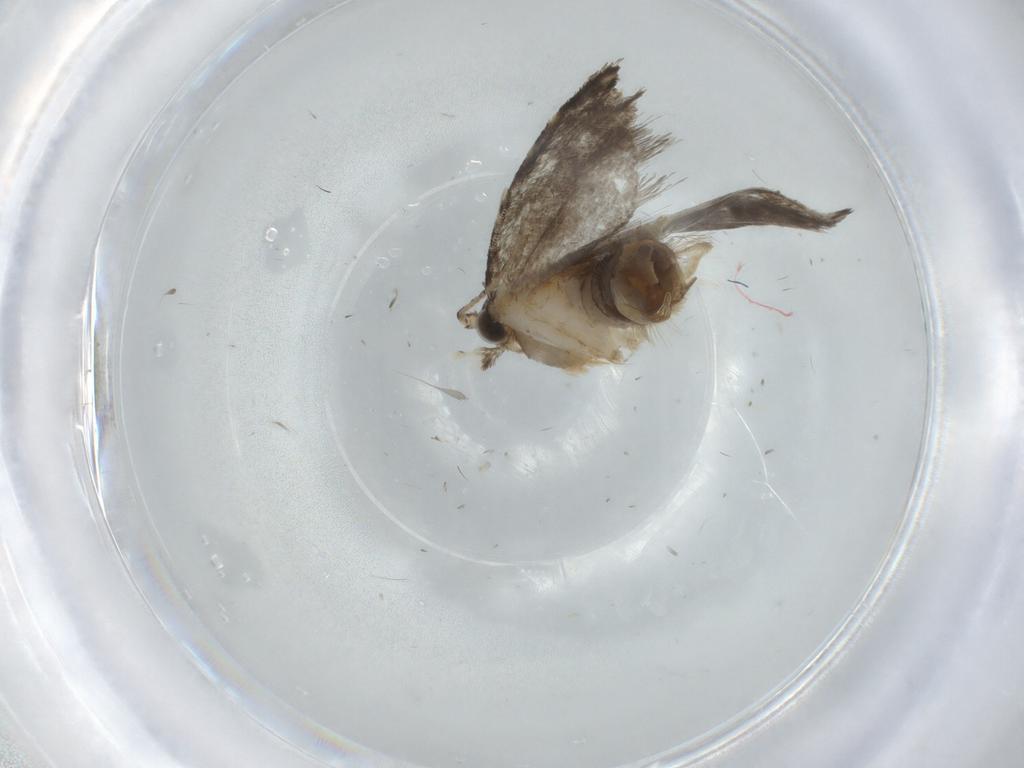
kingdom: Animalia
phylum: Arthropoda
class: Insecta
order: Lepidoptera
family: Tineidae
